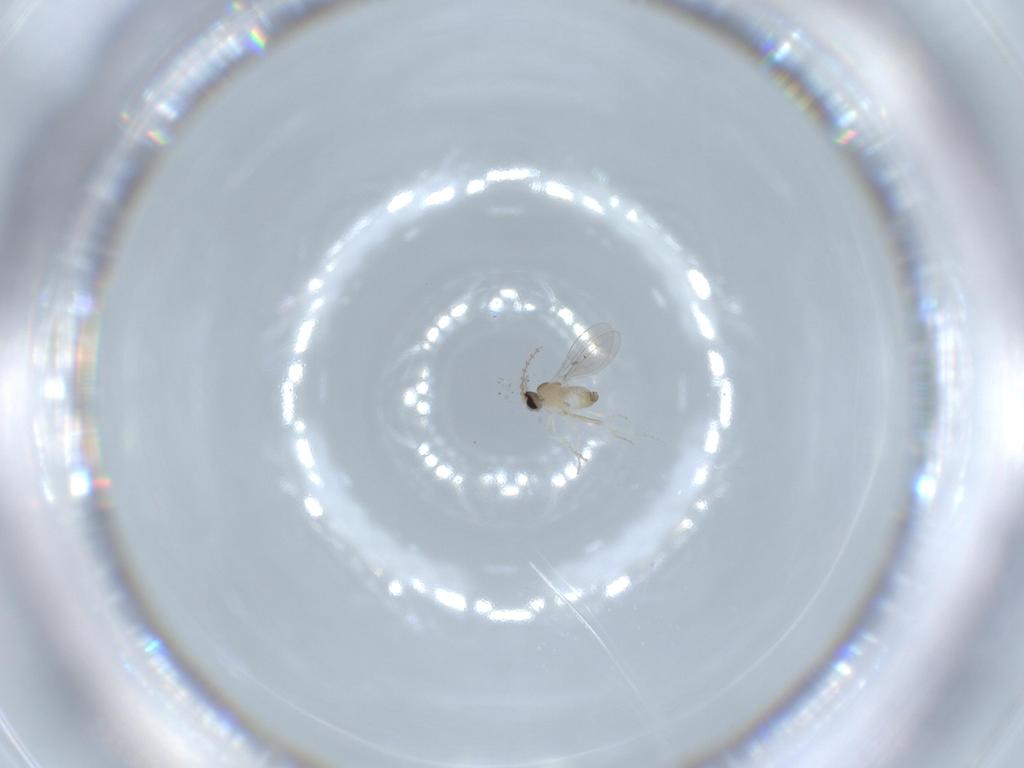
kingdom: Animalia
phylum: Arthropoda
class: Insecta
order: Diptera
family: Cecidomyiidae
